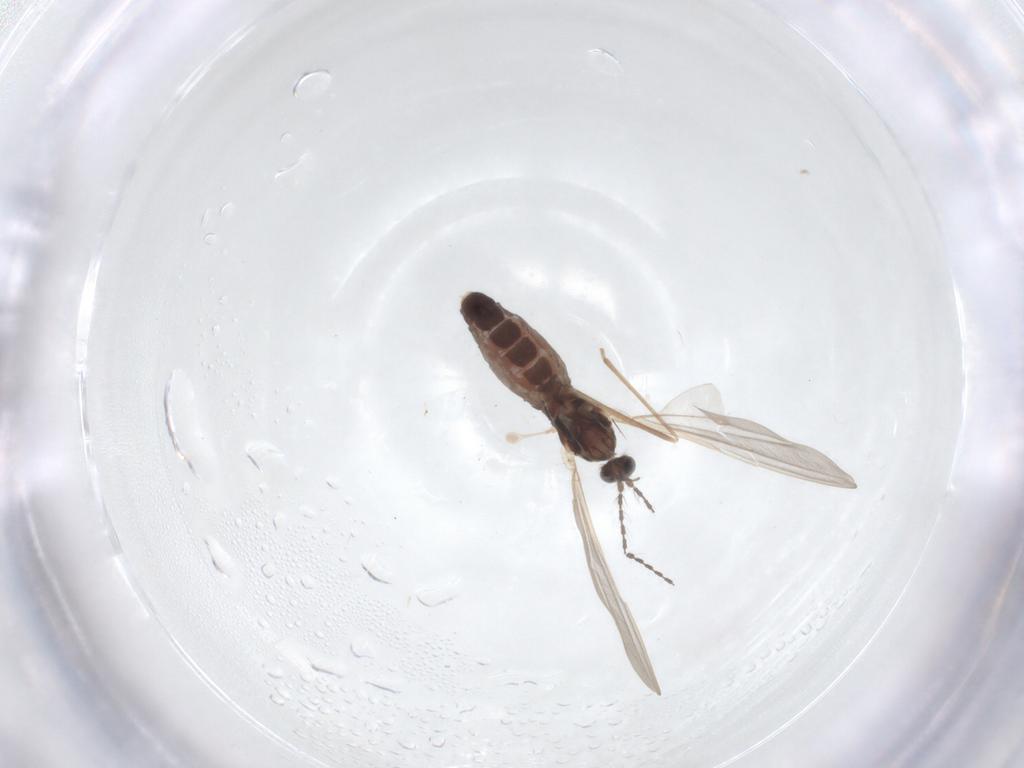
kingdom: Animalia
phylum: Arthropoda
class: Insecta
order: Diptera
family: Cecidomyiidae
